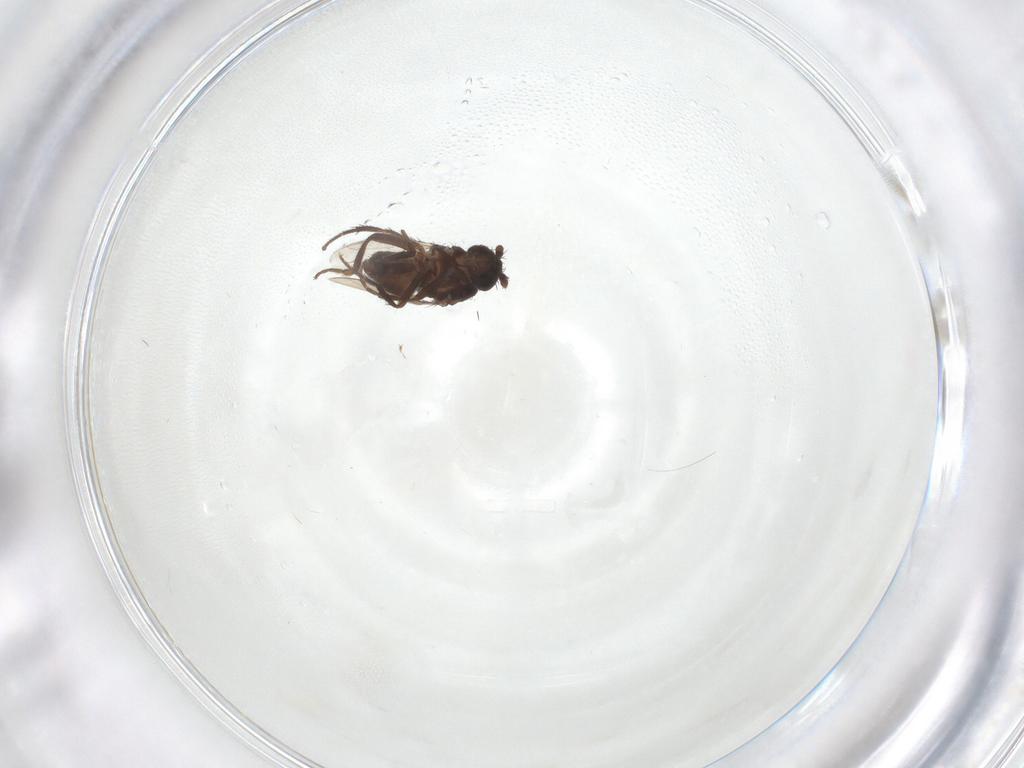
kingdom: Animalia
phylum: Arthropoda
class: Insecta
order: Diptera
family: Sphaeroceridae
